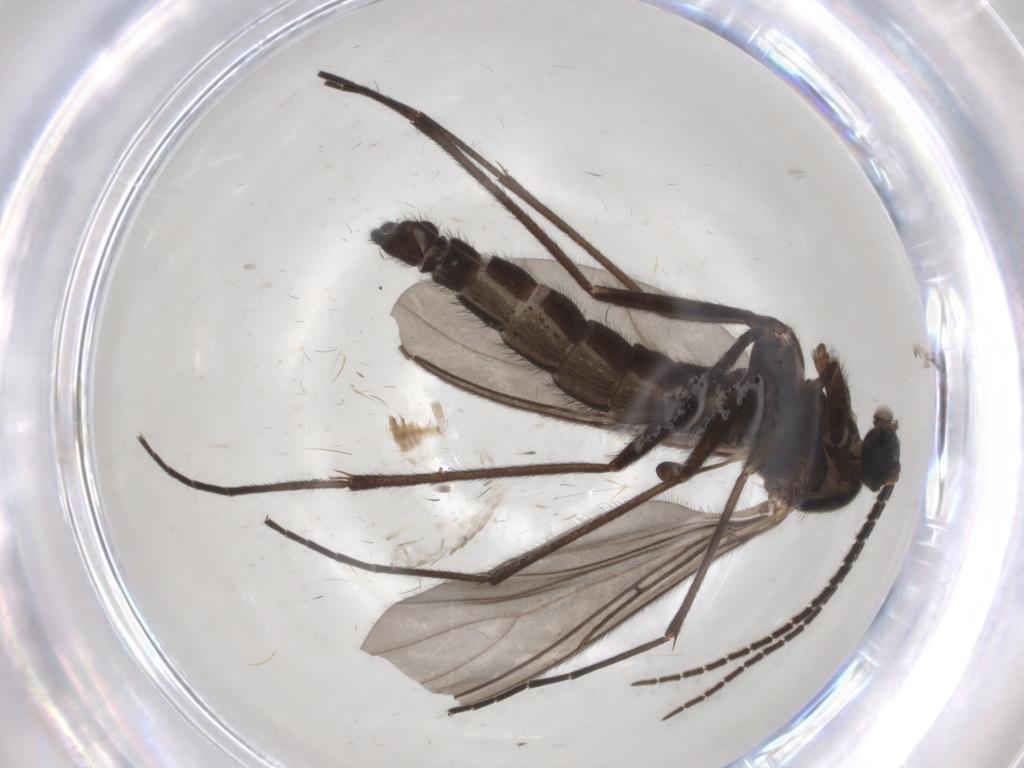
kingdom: Animalia
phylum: Arthropoda
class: Insecta
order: Diptera
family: Sciaridae
